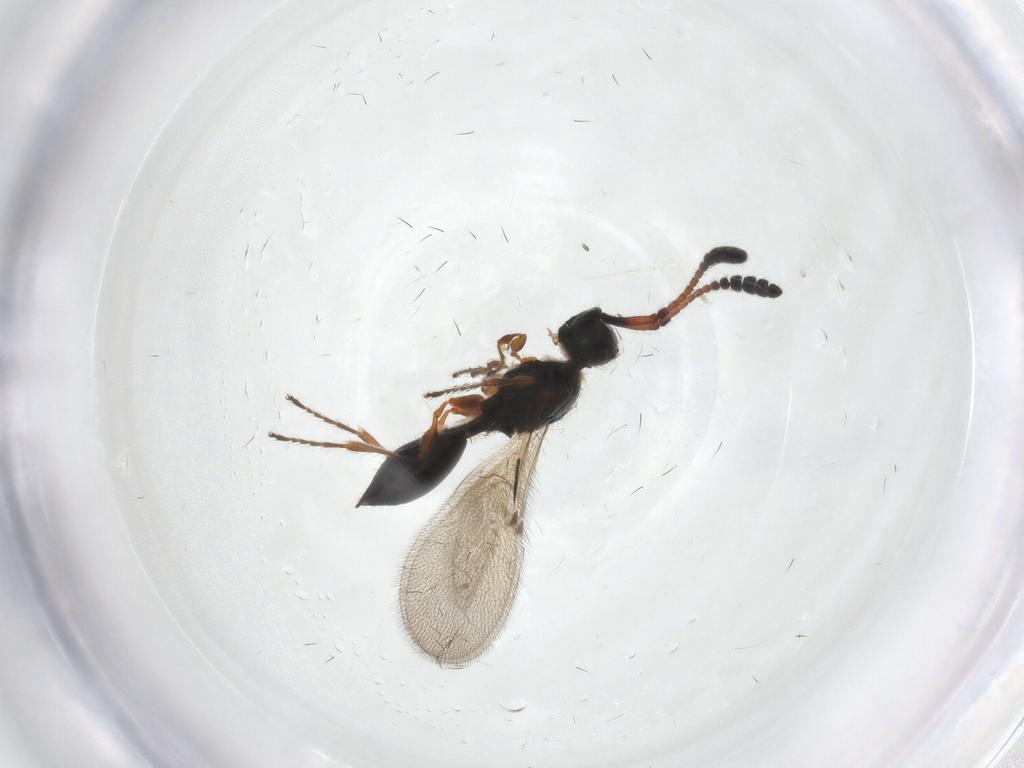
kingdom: Animalia
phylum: Arthropoda
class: Insecta
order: Hymenoptera
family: Diapriidae
